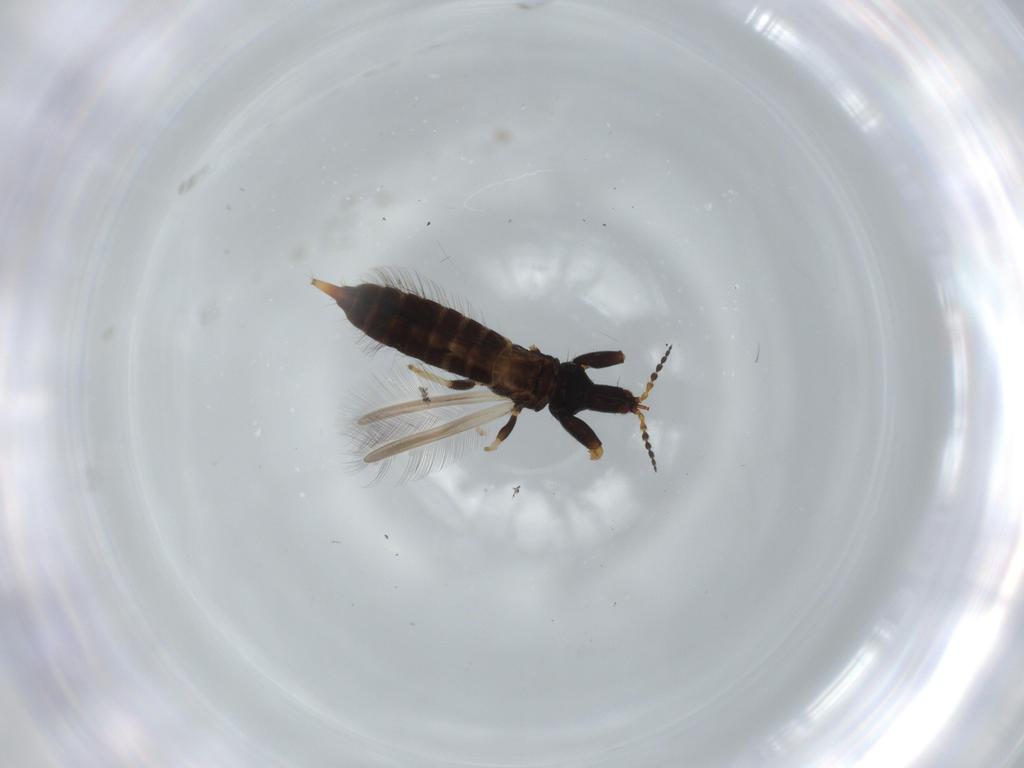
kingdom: Animalia
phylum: Arthropoda
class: Insecta
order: Thysanoptera
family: Phlaeothripidae
